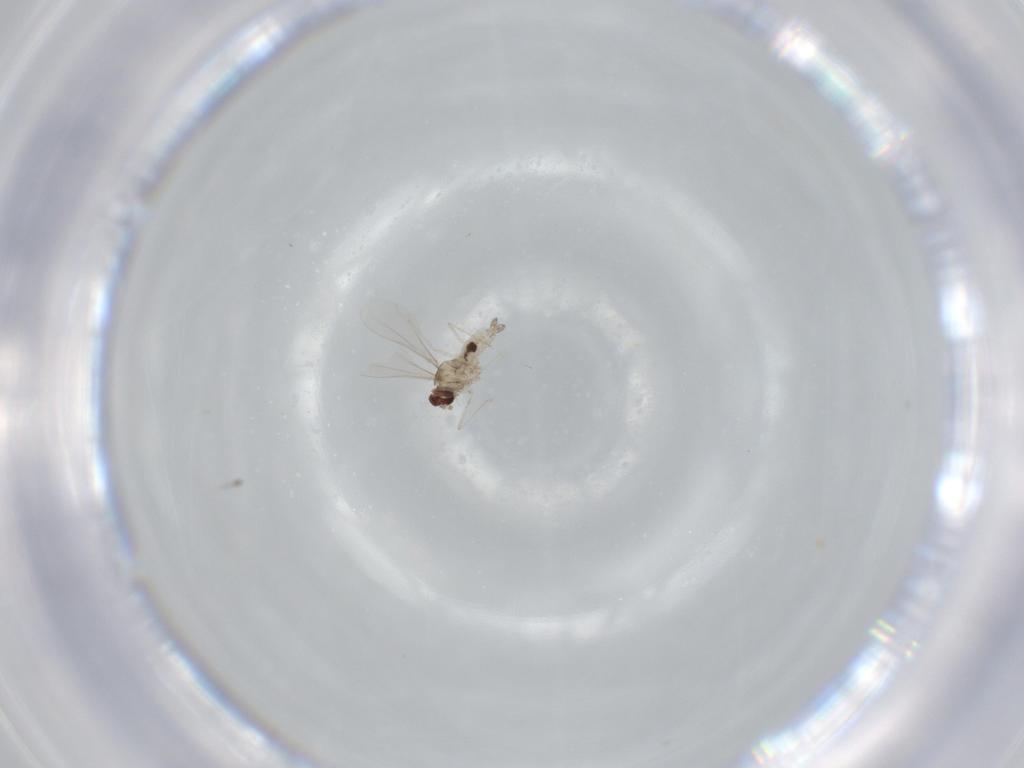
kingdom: Animalia
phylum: Arthropoda
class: Insecta
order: Diptera
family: Cecidomyiidae
